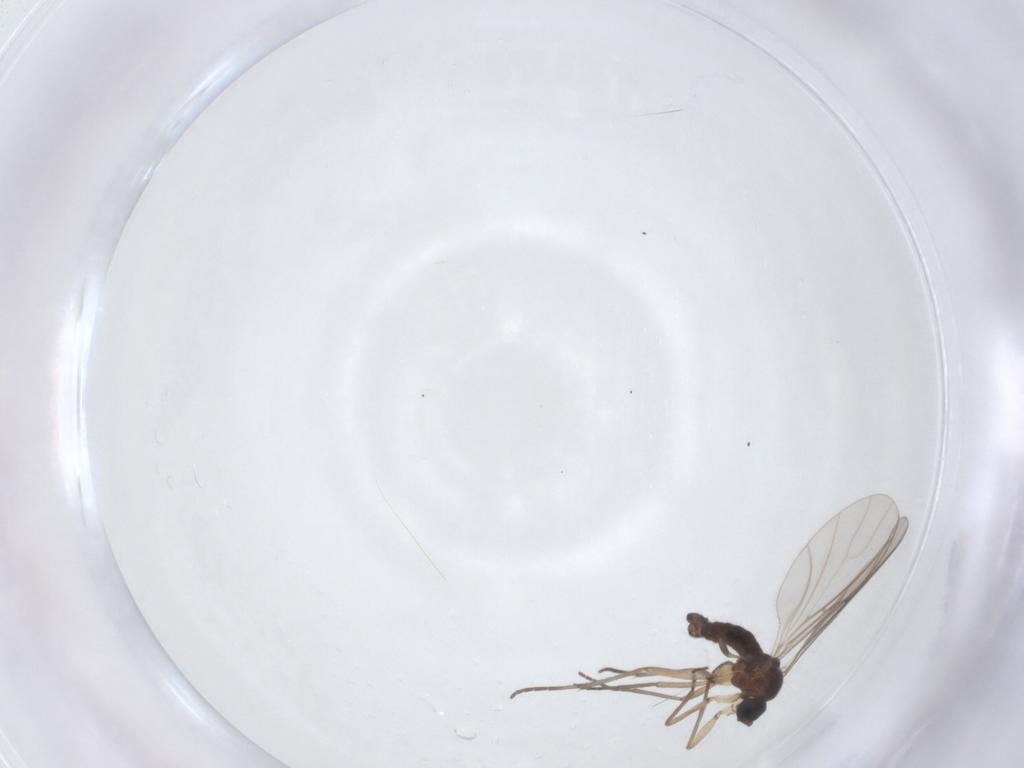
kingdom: Animalia
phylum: Arthropoda
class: Insecta
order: Diptera
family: Sciaridae
